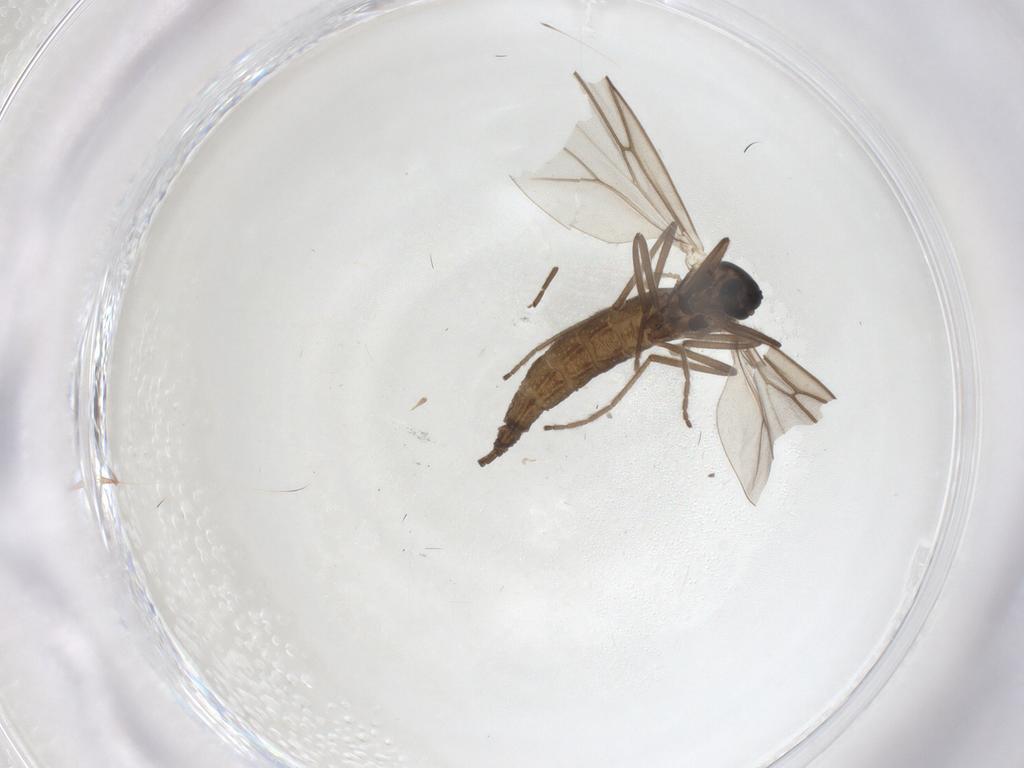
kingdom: Animalia
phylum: Arthropoda
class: Insecta
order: Diptera
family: Cecidomyiidae
